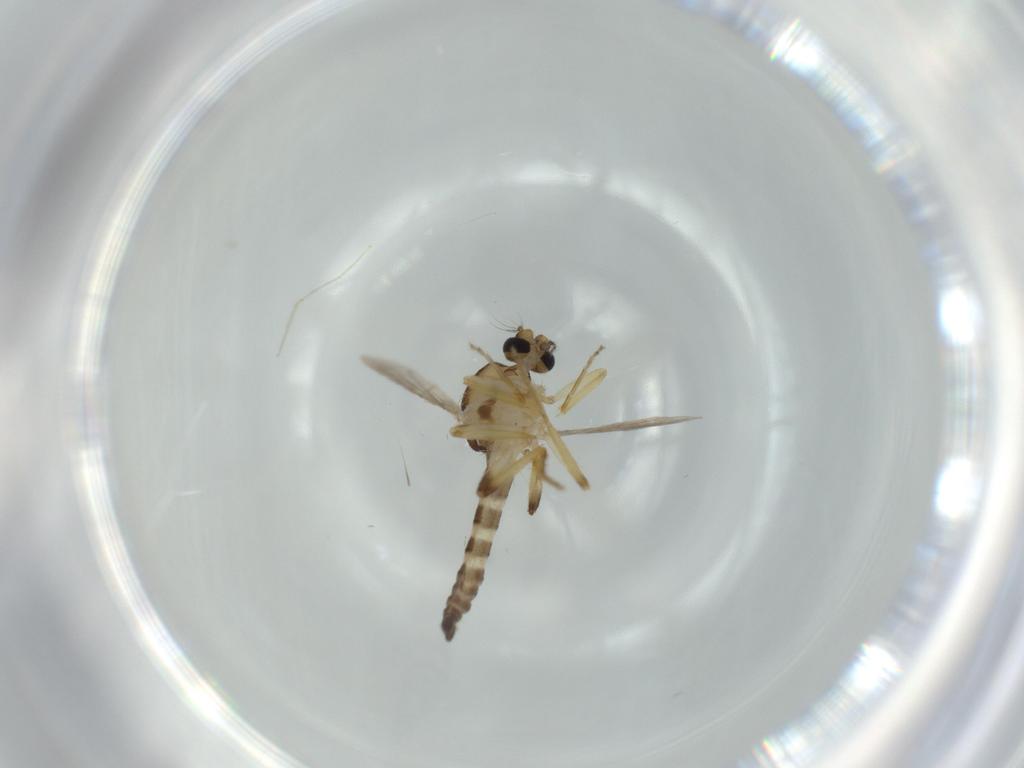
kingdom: Animalia
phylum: Arthropoda
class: Insecta
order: Diptera
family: Ceratopogonidae
